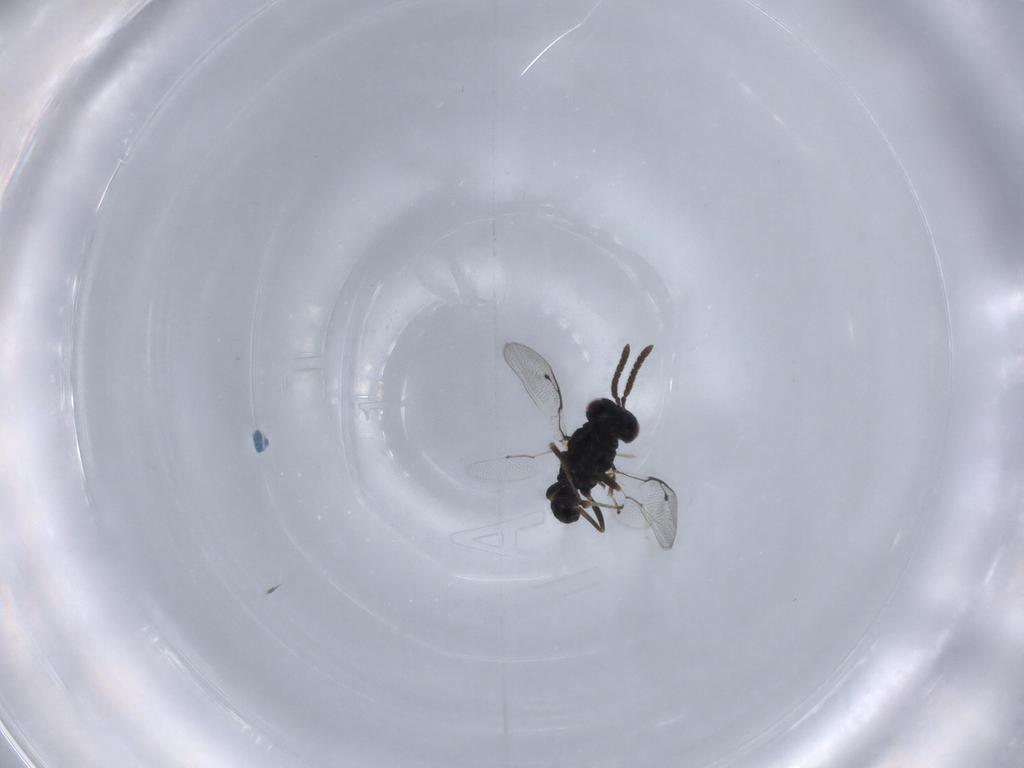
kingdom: Animalia
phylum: Arthropoda
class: Insecta
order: Hymenoptera
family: Pteromalidae
